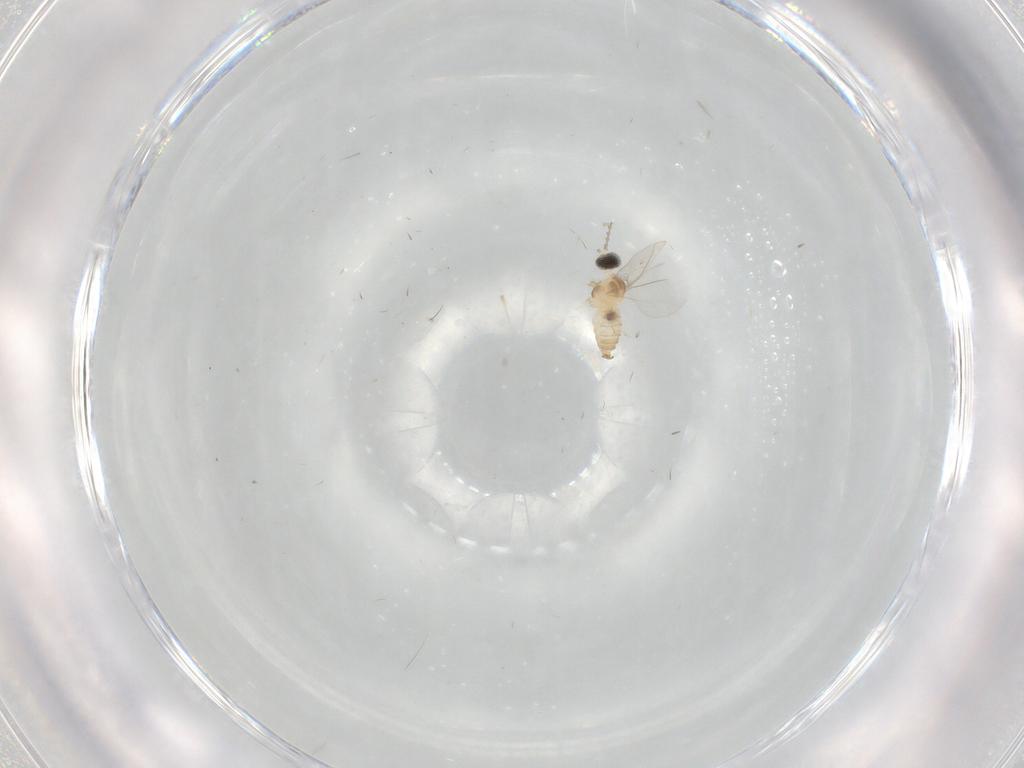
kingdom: Animalia
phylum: Arthropoda
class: Insecta
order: Diptera
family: Cecidomyiidae
